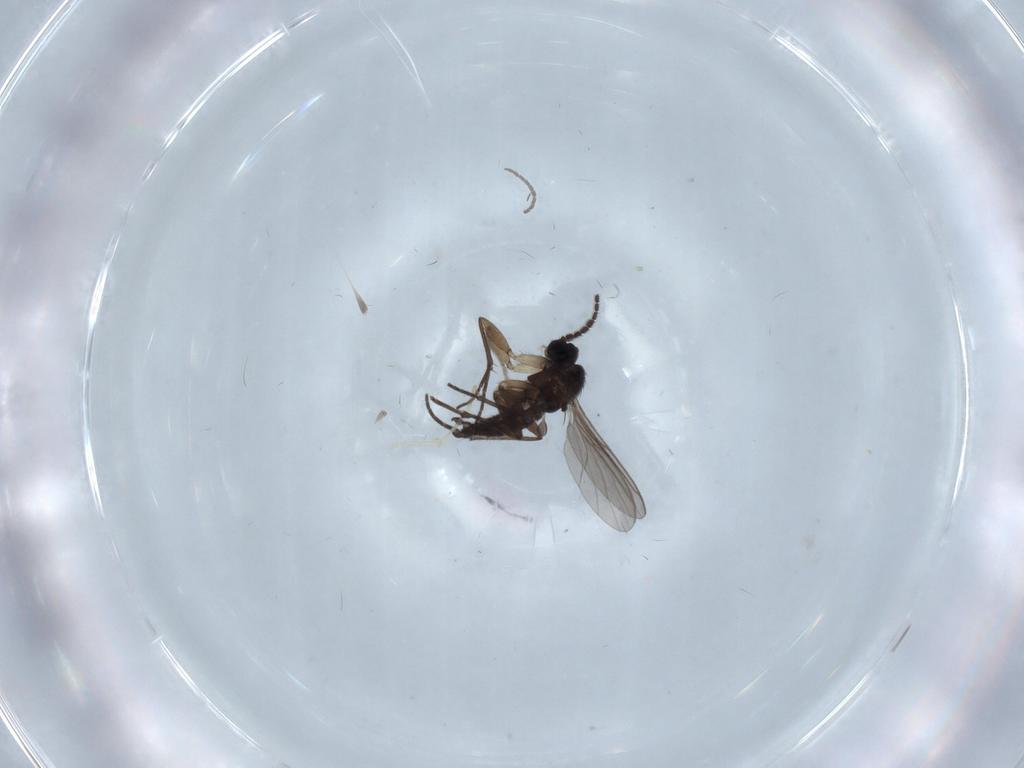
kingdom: Animalia
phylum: Arthropoda
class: Insecta
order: Diptera
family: Sciaridae
